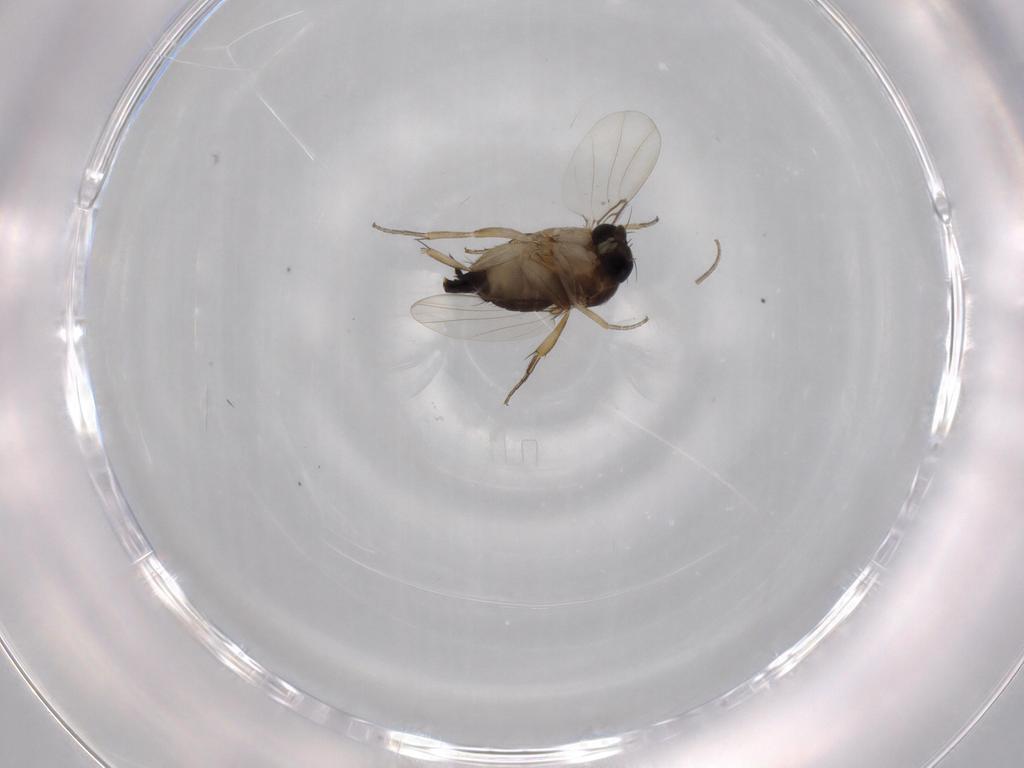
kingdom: Animalia
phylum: Arthropoda
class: Insecta
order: Diptera
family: Phoridae
